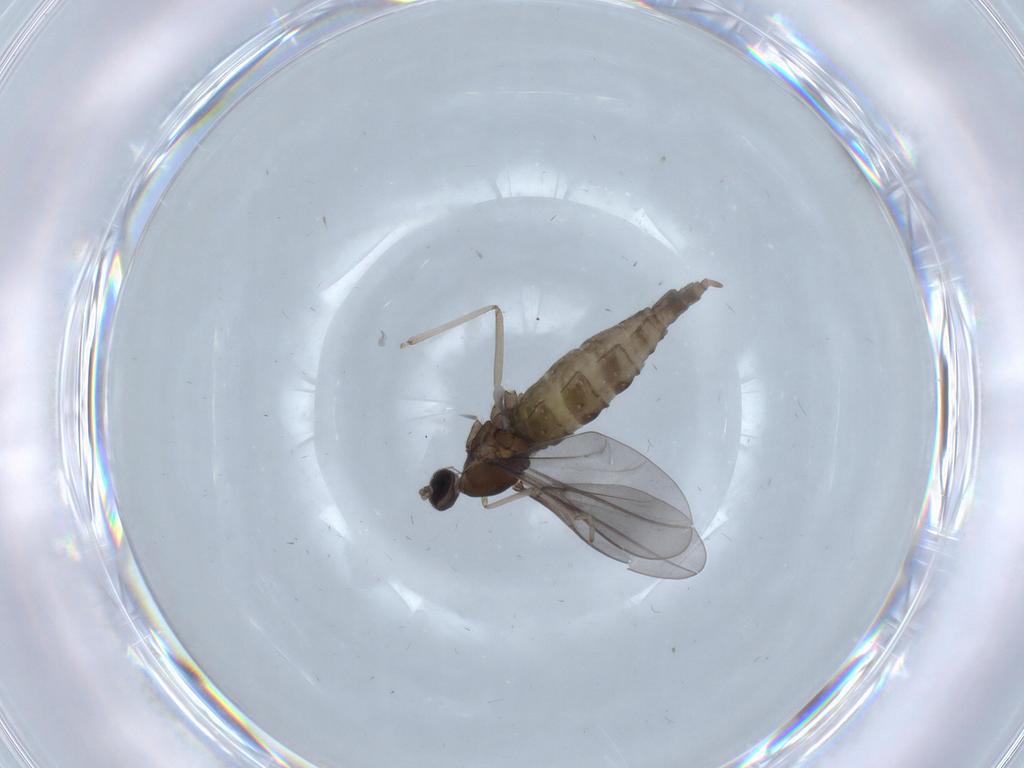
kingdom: Animalia
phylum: Arthropoda
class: Insecta
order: Diptera
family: Cecidomyiidae
